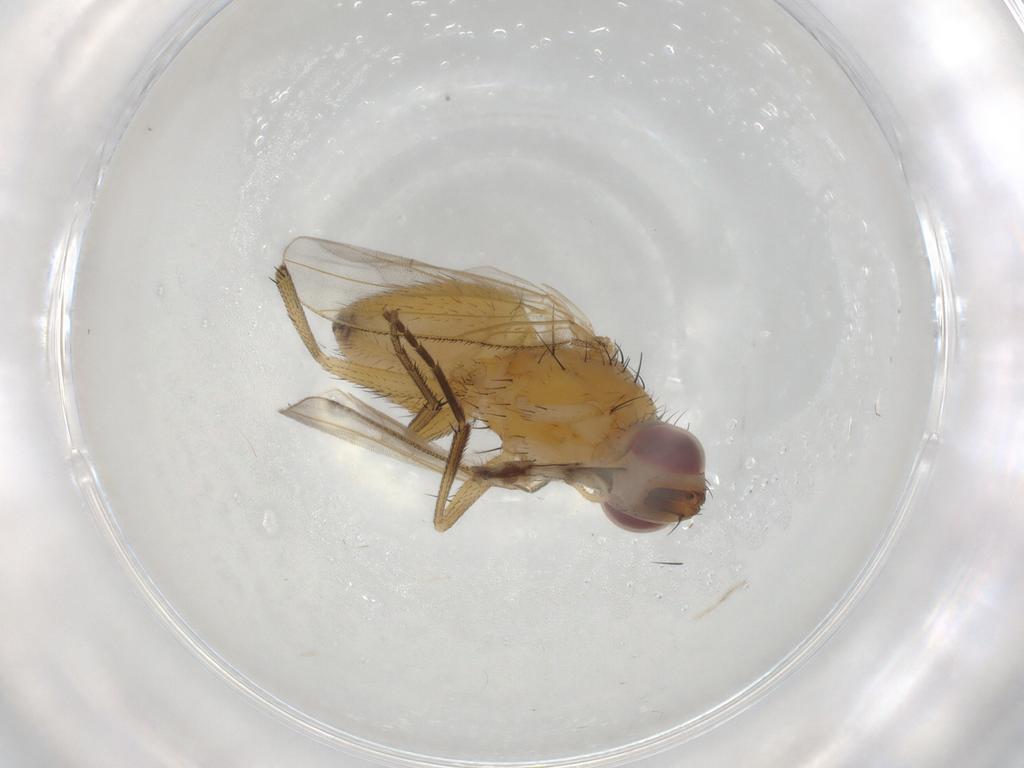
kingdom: Animalia
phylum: Arthropoda
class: Insecta
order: Diptera
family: Muscidae
